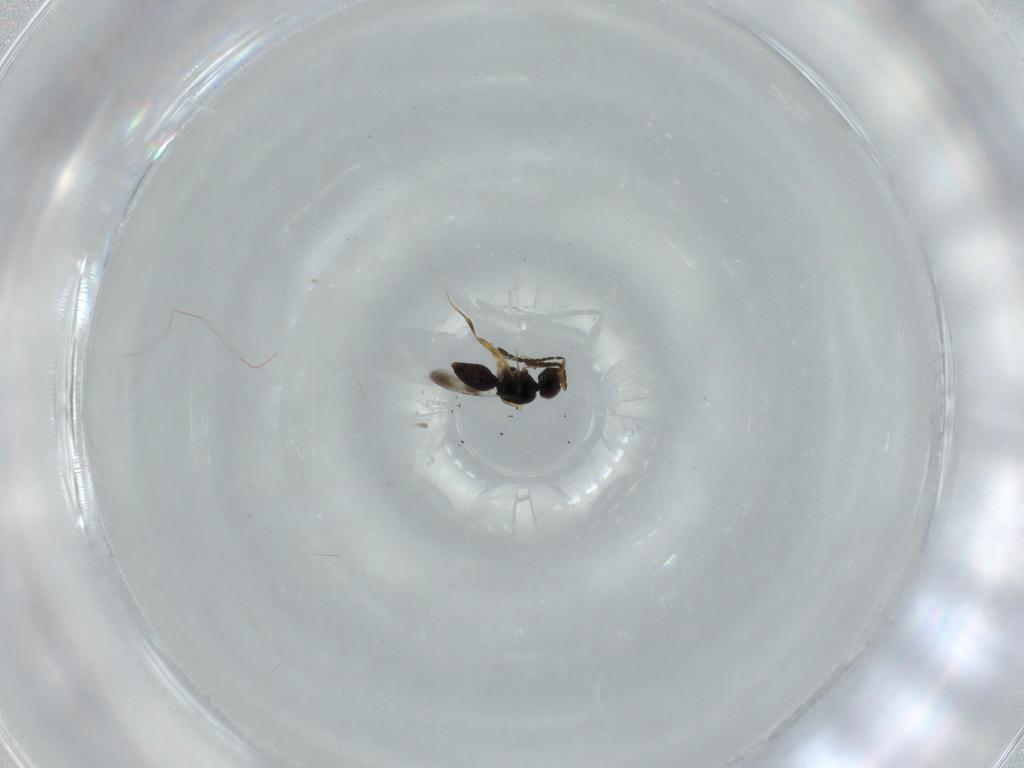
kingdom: Animalia
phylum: Arthropoda
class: Insecta
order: Hymenoptera
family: Ceraphronidae
